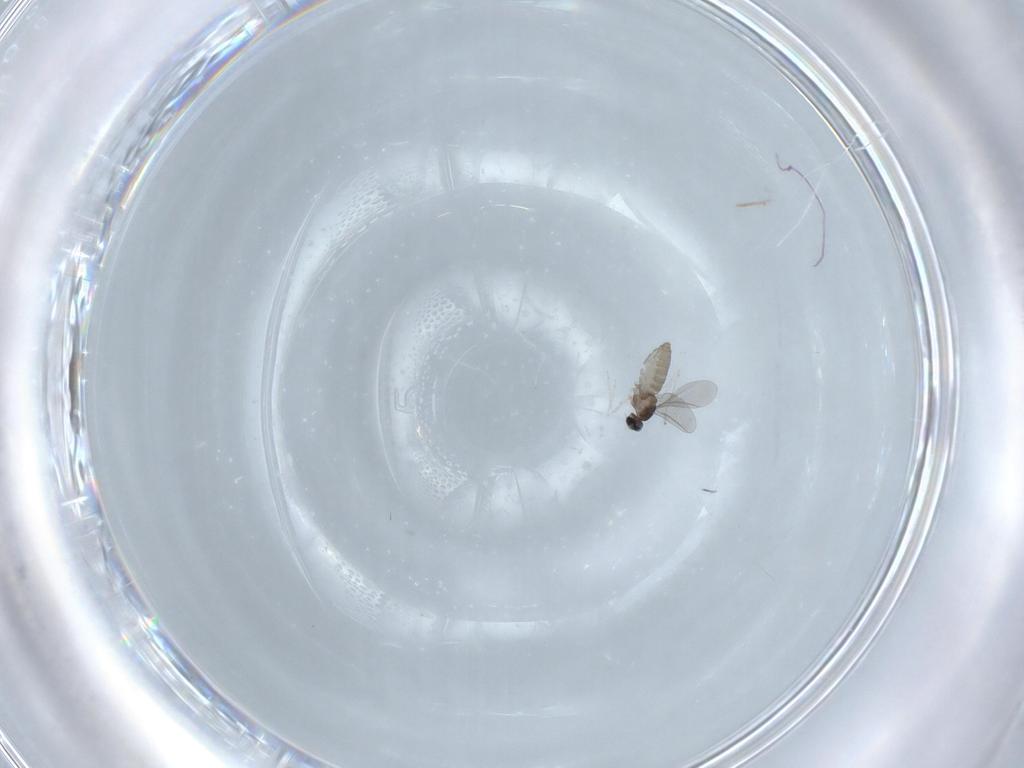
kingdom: Animalia
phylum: Arthropoda
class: Insecta
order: Diptera
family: Cecidomyiidae
